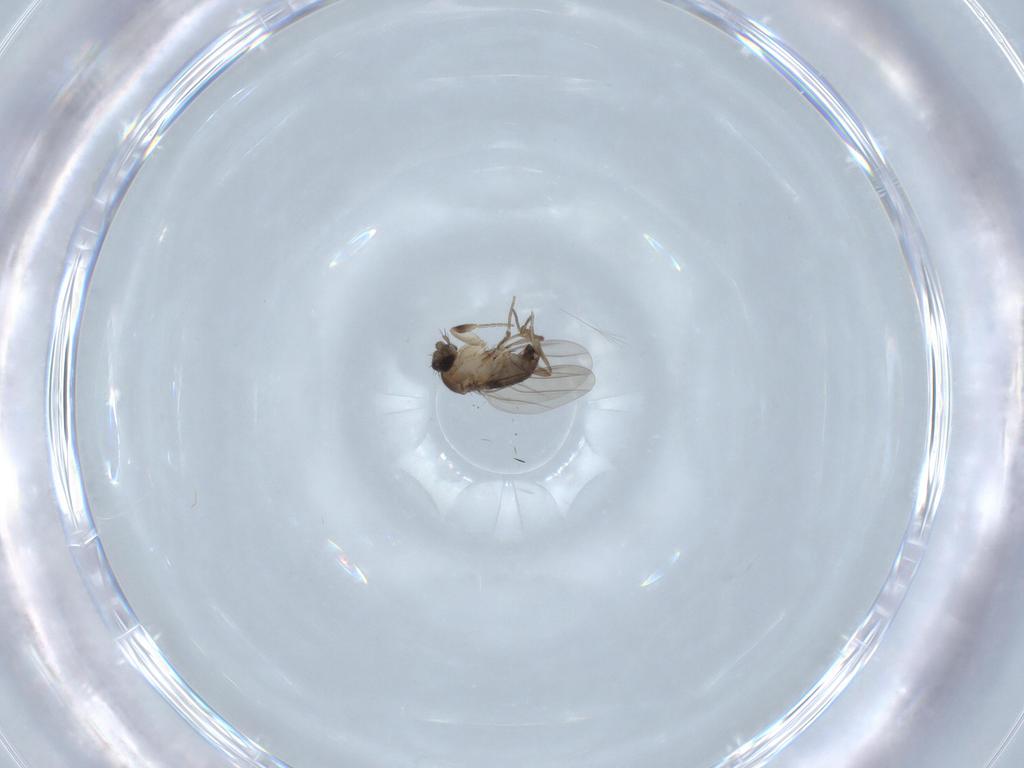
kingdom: Animalia
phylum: Arthropoda
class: Insecta
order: Diptera
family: Phoridae
